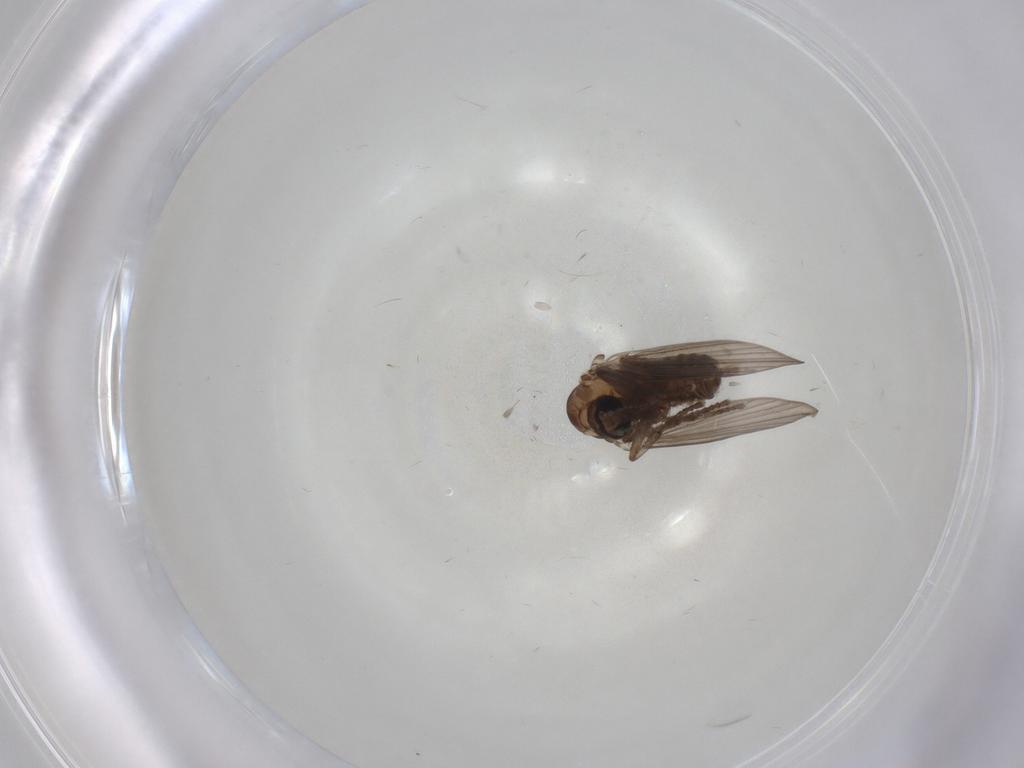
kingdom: Animalia
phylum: Arthropoda
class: Insecta
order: Diptera
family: Psychodidae
